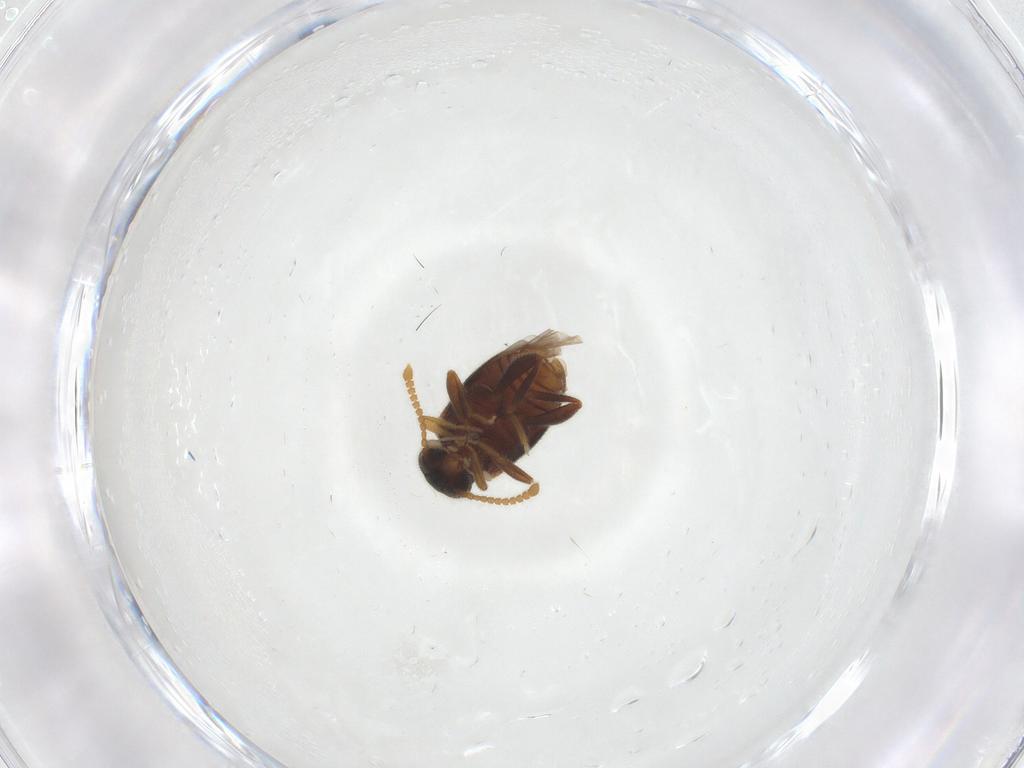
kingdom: Animalia
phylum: Arthropoda
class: Insecta
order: Coleoptera
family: Aderidae
